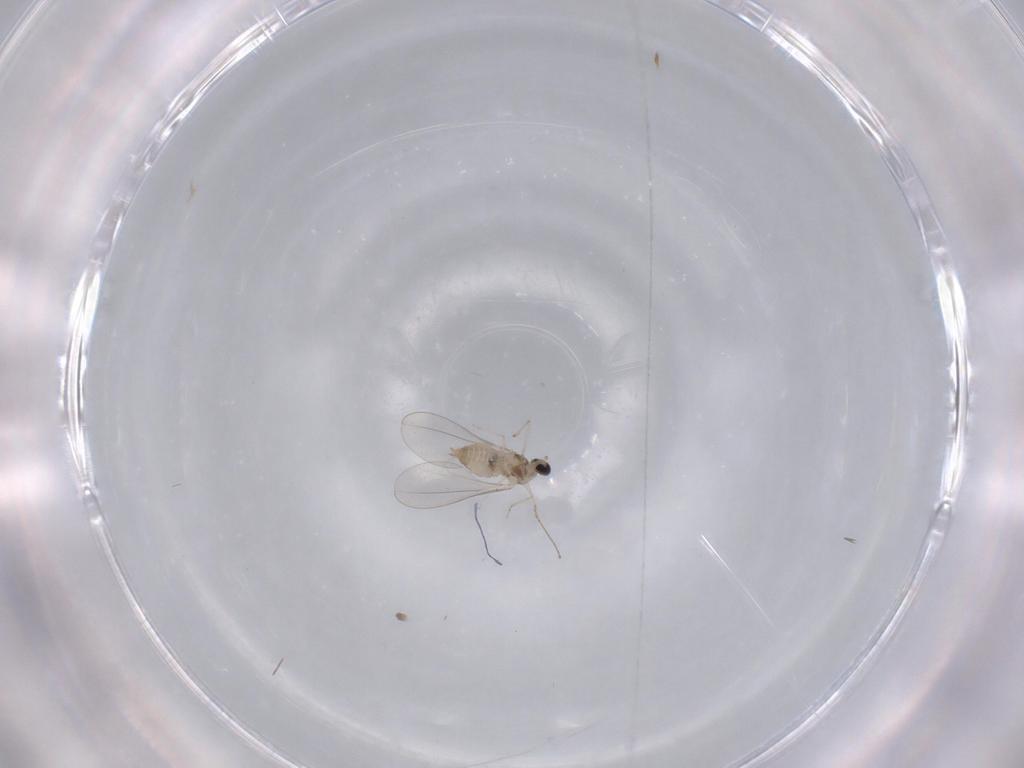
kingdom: Animalia
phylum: Arthropoda
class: Insecta
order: Diptera
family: Cecidomyiidae
